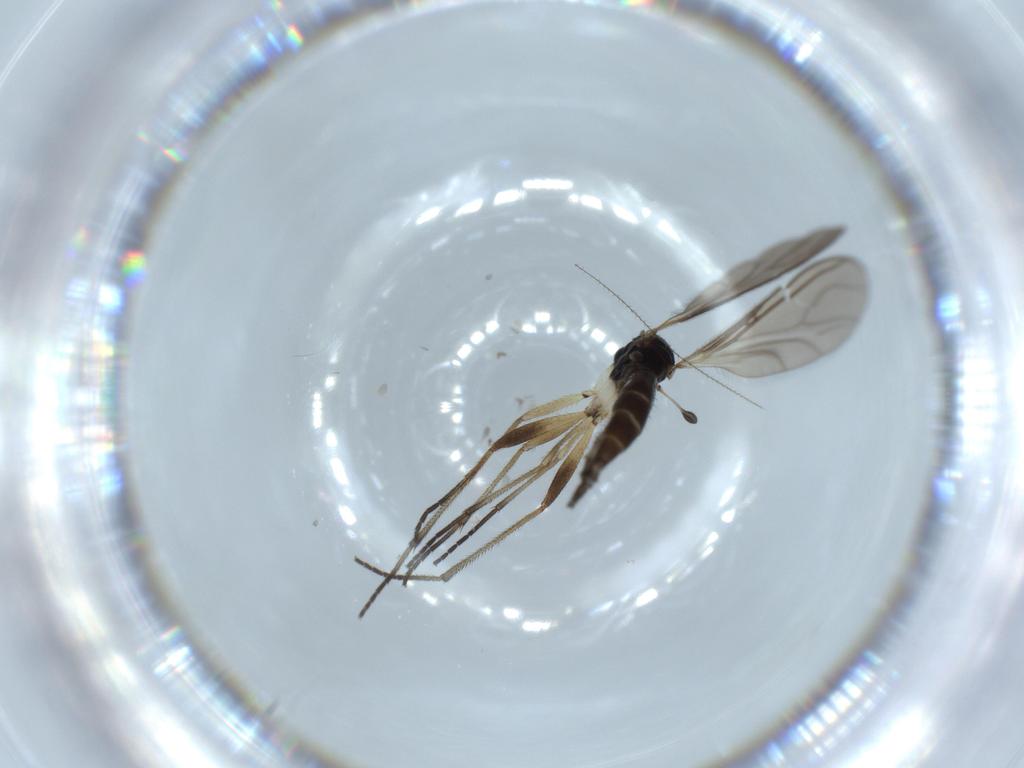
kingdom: Animalia
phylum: Arthropoda
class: Insecta
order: Diptera
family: Sciaridae
